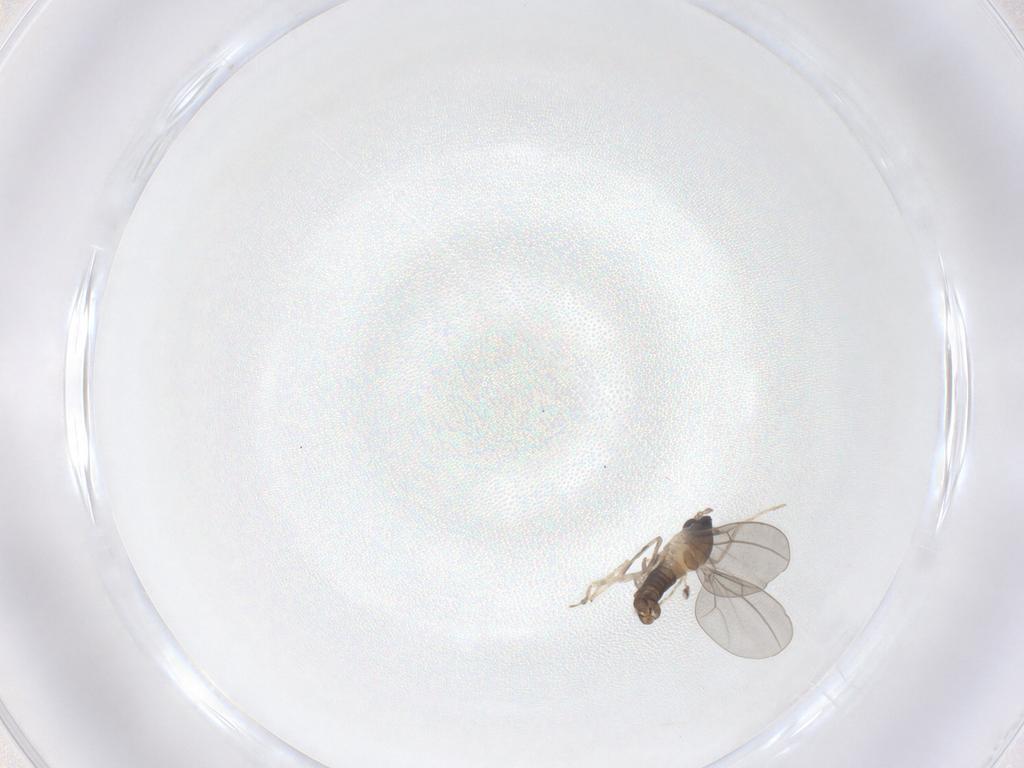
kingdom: Animalia
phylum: Arthropoda
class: Insecta
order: Diptera
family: Cecidomyiidae
